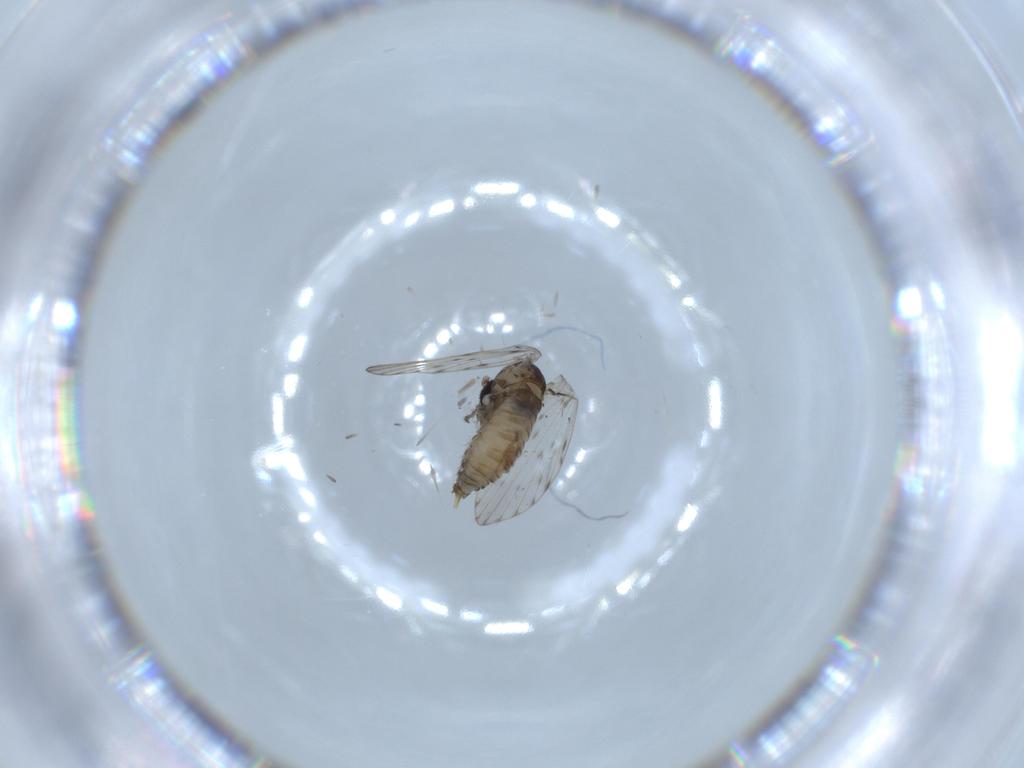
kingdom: Animalia
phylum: Arthropoda
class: Insecta
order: Diptera
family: Psychodidae
